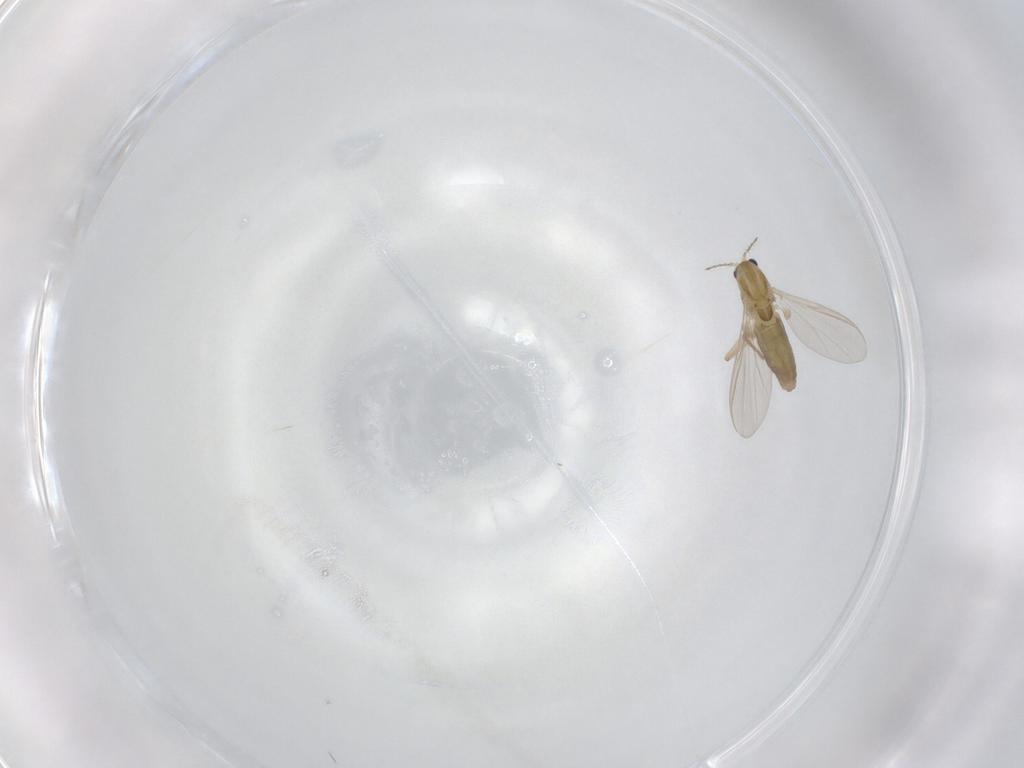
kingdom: Animalia
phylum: Arthropoda
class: Insecta
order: Diptera
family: Chironomidae
